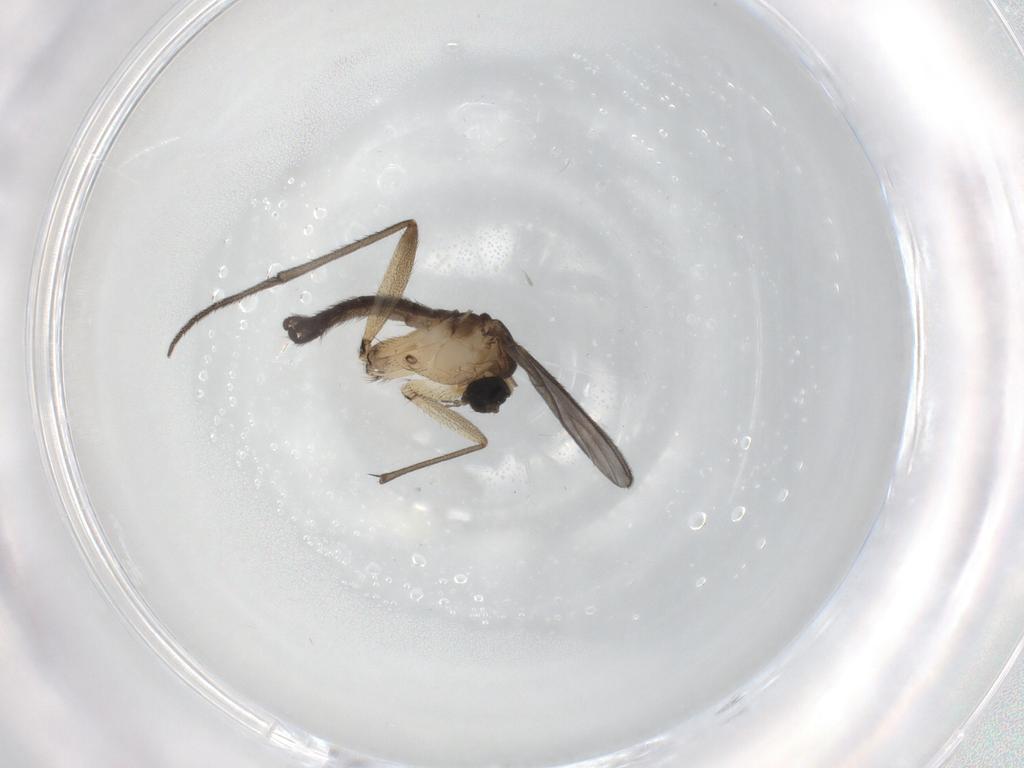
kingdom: Animalia
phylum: Arthropoda
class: Insecta
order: Diptera
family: Sciaridae
